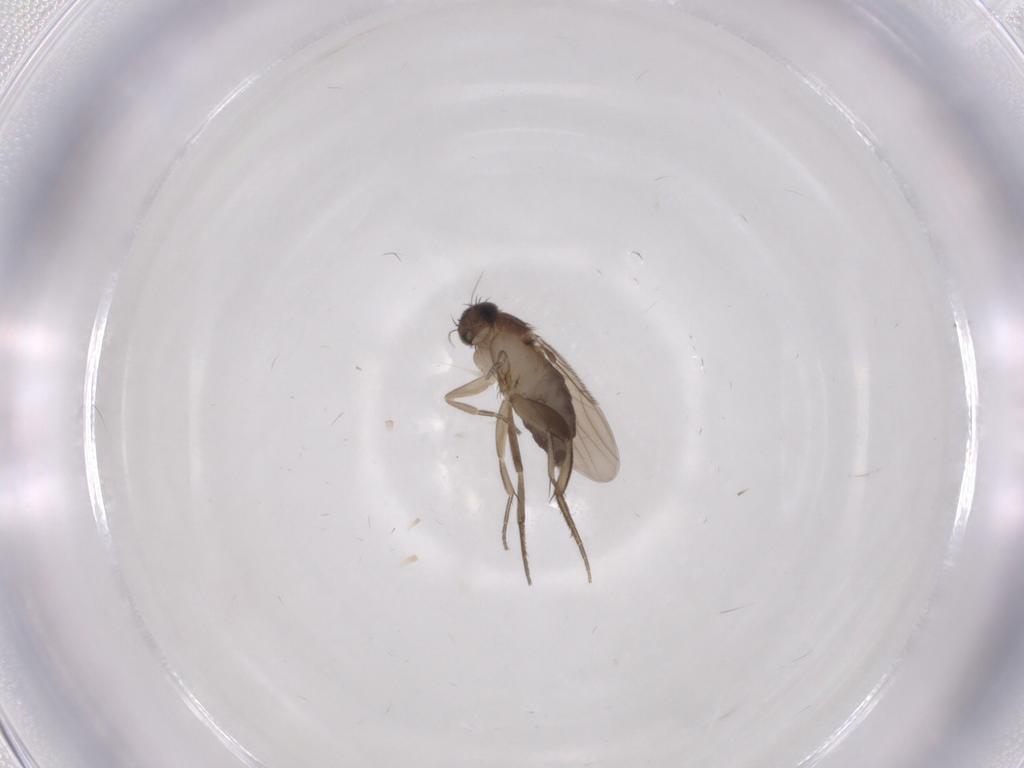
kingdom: Animalia
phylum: Arthropoda
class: Insecta
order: Diptera
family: Phoridae
